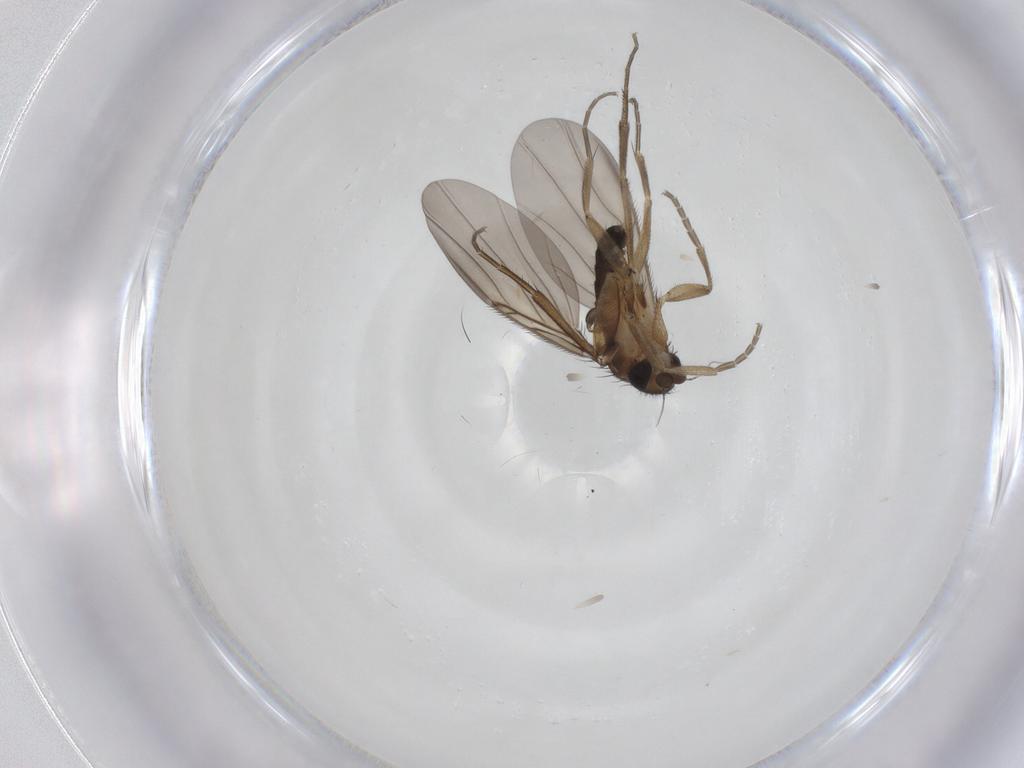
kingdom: Animalia
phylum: Arthropoda
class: Insecta
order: Diptera
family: Phoridae
